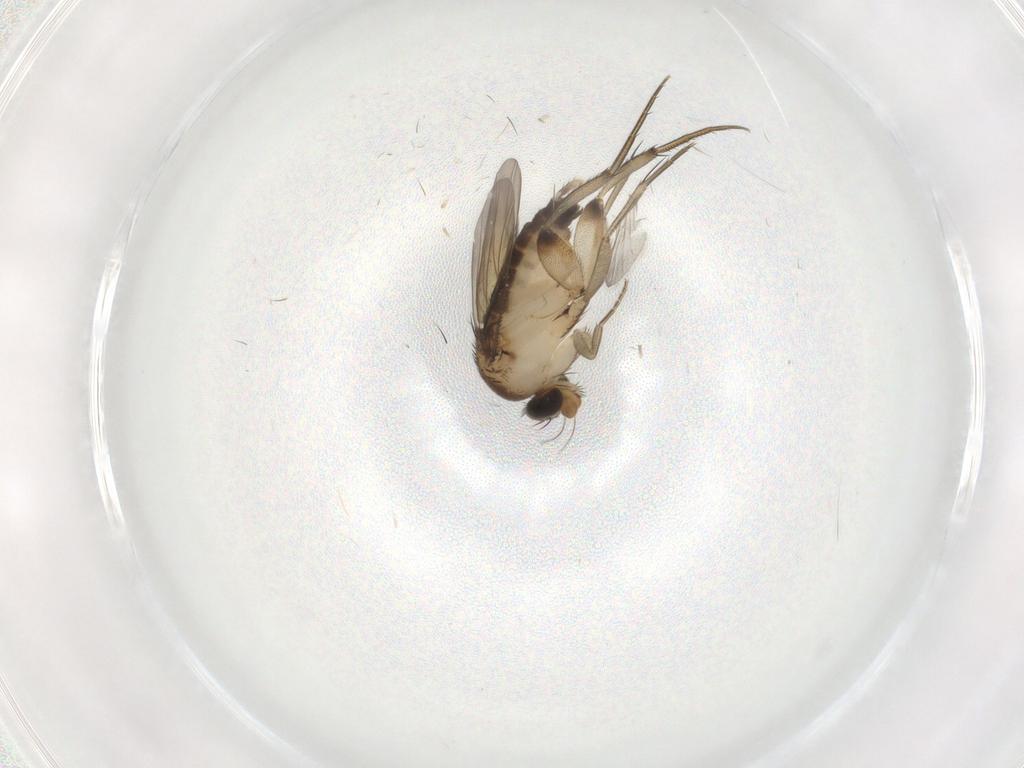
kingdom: Animalia
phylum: Arthropoda
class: Insecta
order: Diptera
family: Phoridae
